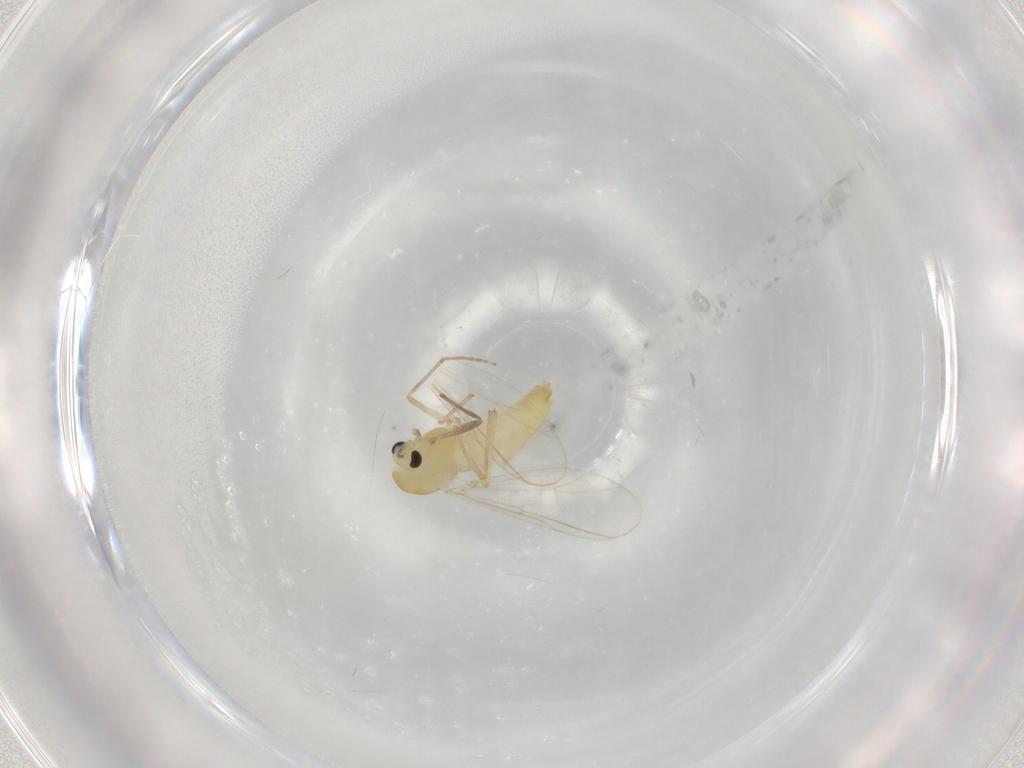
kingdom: Animalia
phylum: Arthropoda
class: Insecta
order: Diptera
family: Chironomidae
